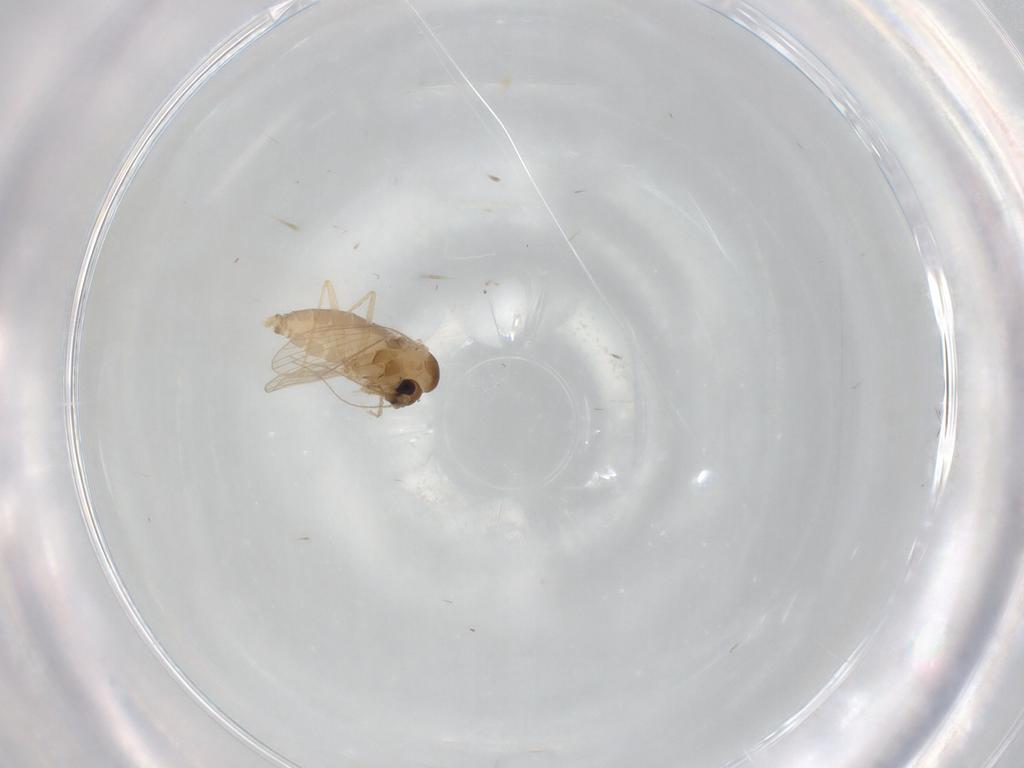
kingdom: Animalia
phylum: Arthropoda
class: Insecta
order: Diptera
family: Psychodidae
